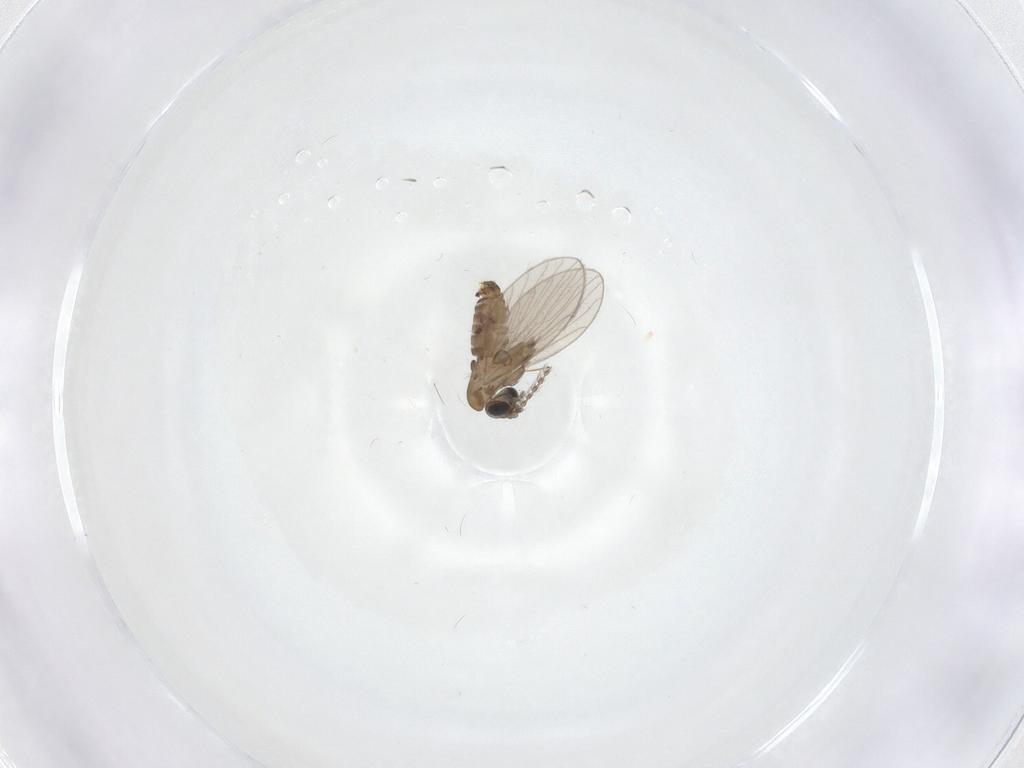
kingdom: Animalia
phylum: Arthropoda
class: Insecta
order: Diptera
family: Psychodidae
